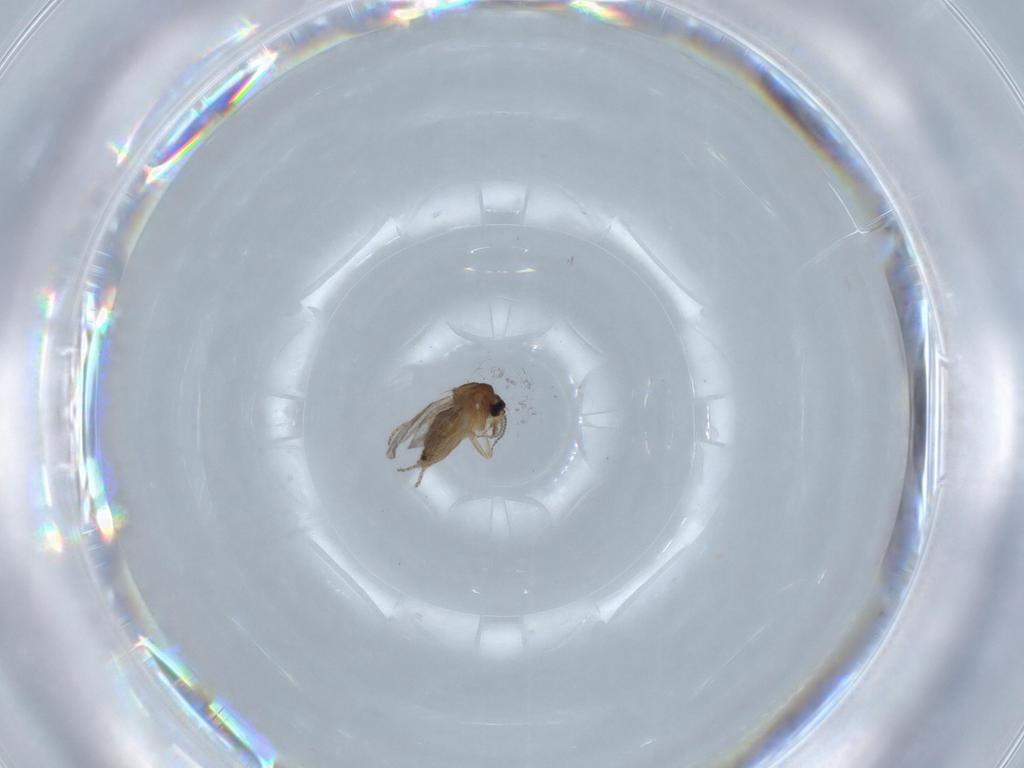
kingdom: Animalia
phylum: Arthropoda
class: Insecta
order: Diptera
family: Ceratopogonidae
